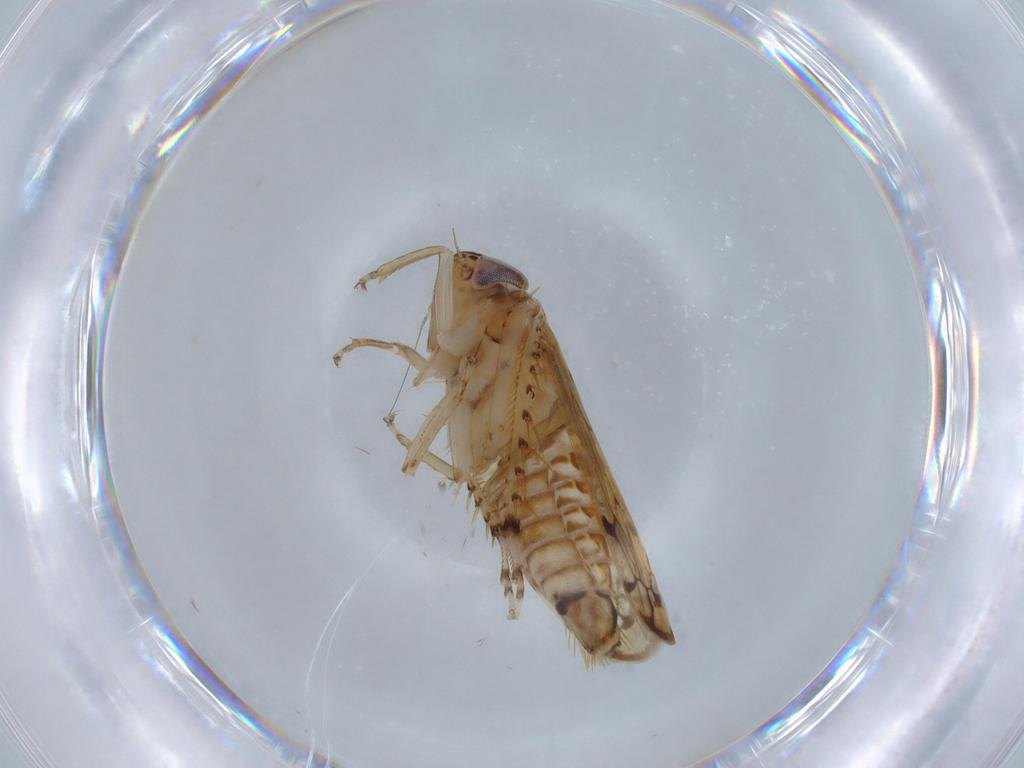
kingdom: Animalia
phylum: Arthropoda
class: Insecta
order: Hemiptera
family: Cicadellidae
